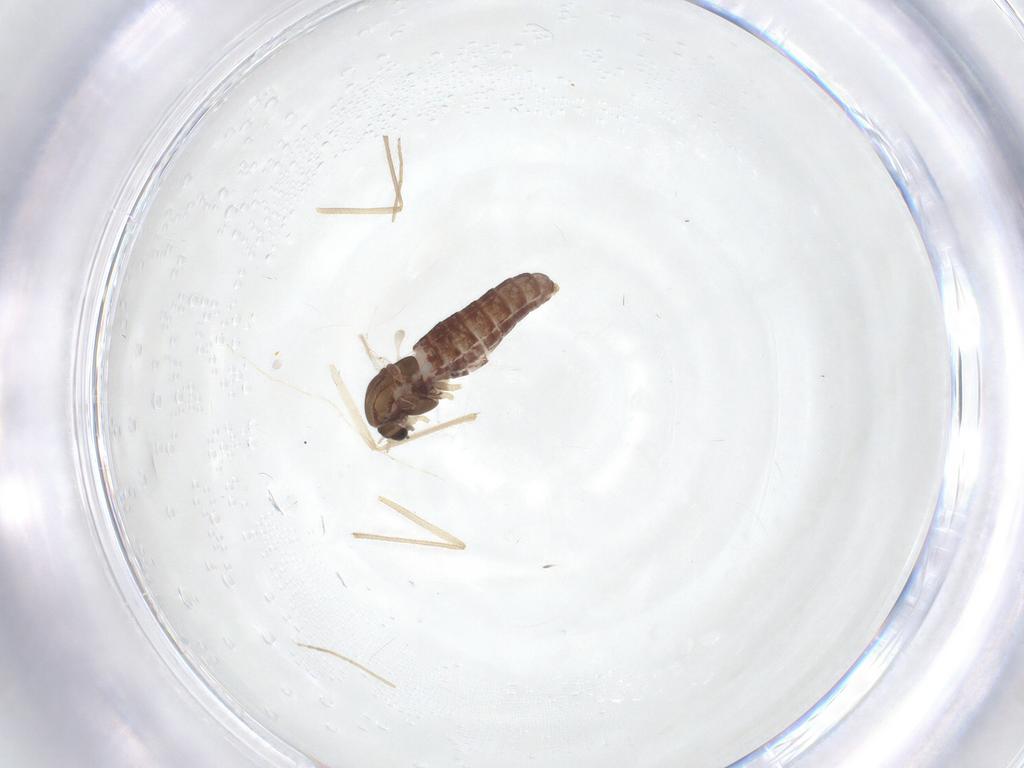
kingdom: Animalia
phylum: Arthropoda
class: Insecta
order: Diptera
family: Chironomidae
